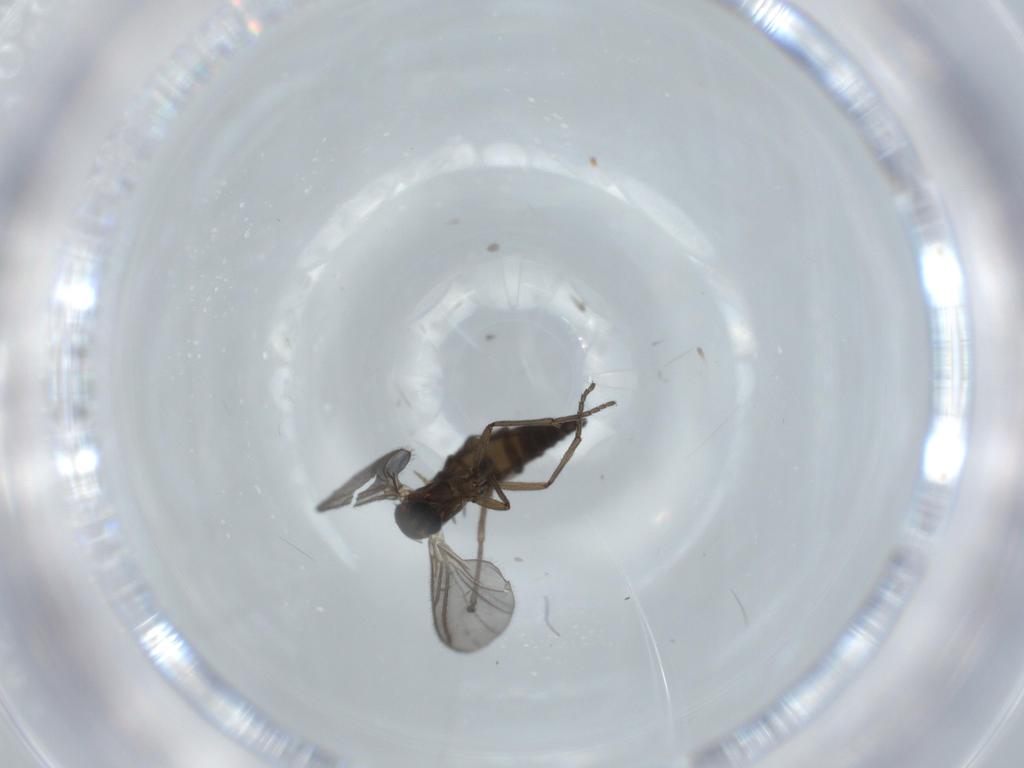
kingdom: Animalia
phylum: Arthropoda
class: Insecta
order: Diptera
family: Sciaridae
